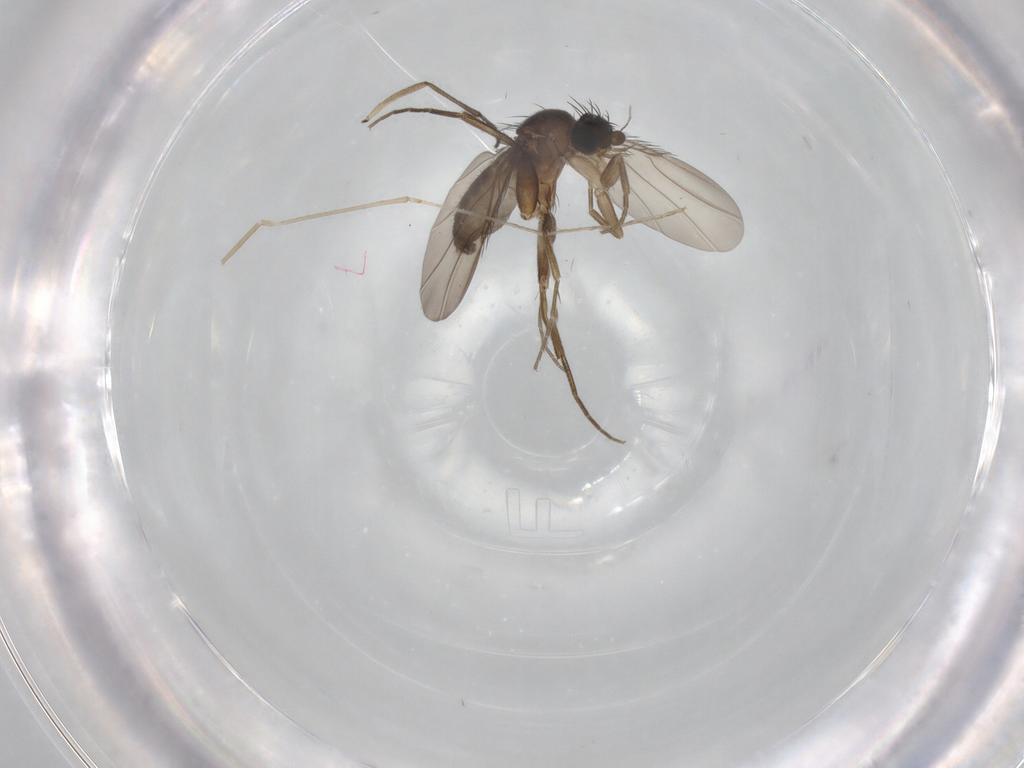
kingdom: Animalia
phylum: Arthropoda
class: Insecta
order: Diptera
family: Phoridae
